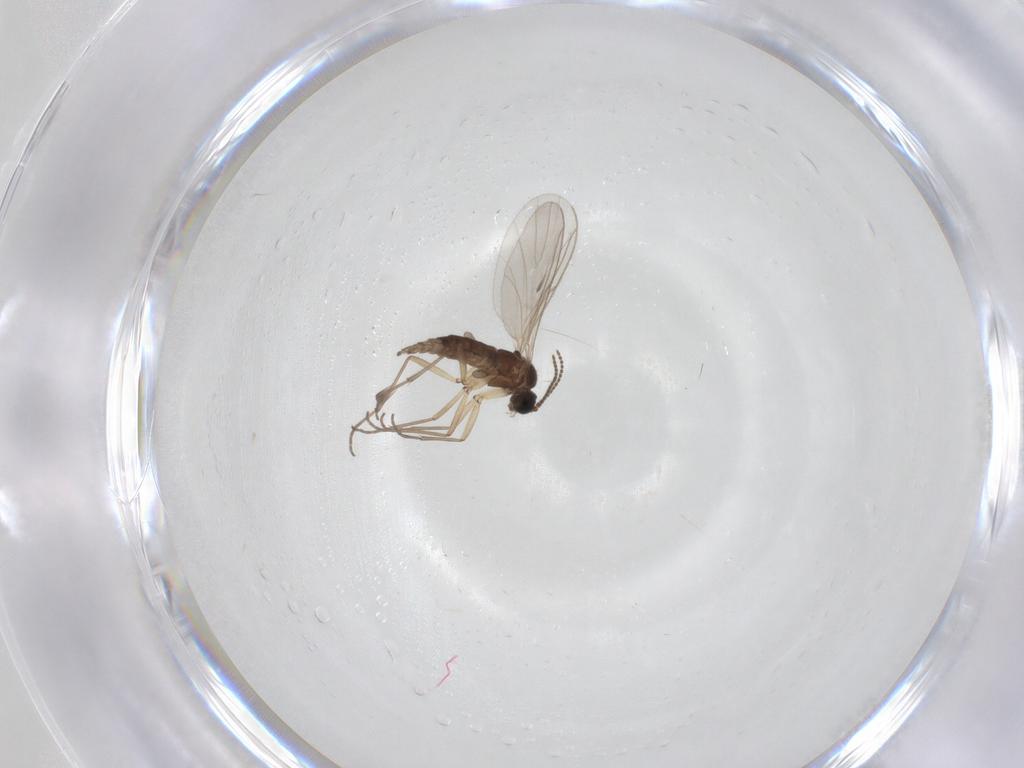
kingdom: Animalia
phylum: Arthropoda
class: Insecta
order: Diptera
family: Sciaridae
